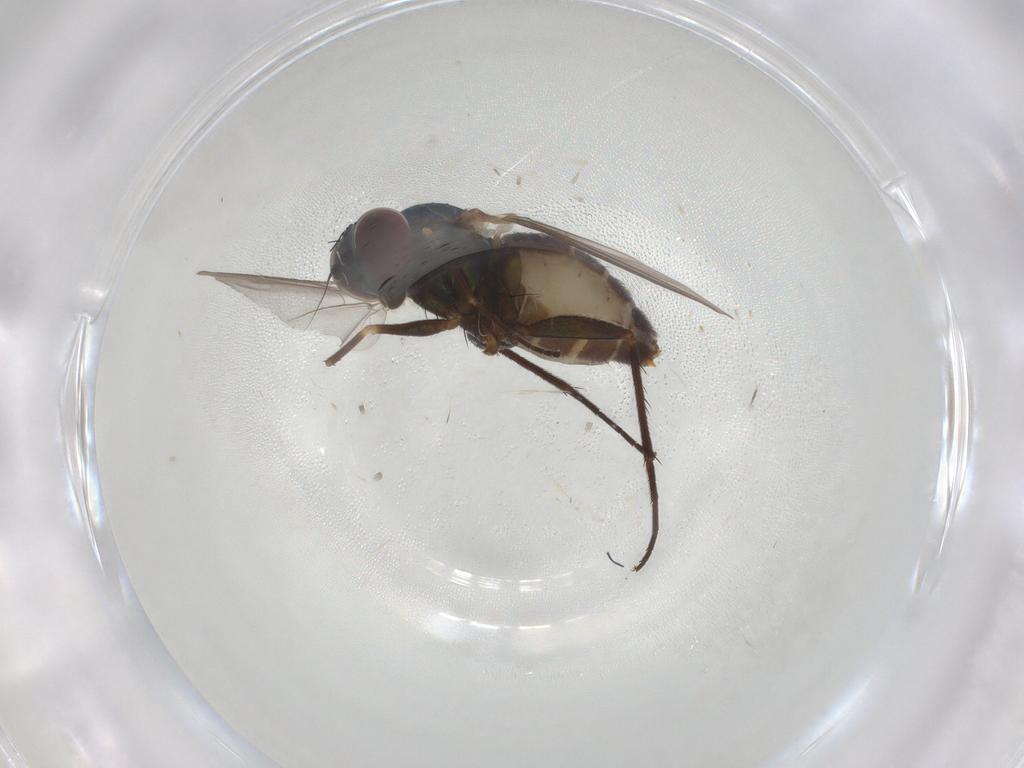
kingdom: Animalia
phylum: Arthropoda
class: Insecta
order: Diptera
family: Dolichopodidae
